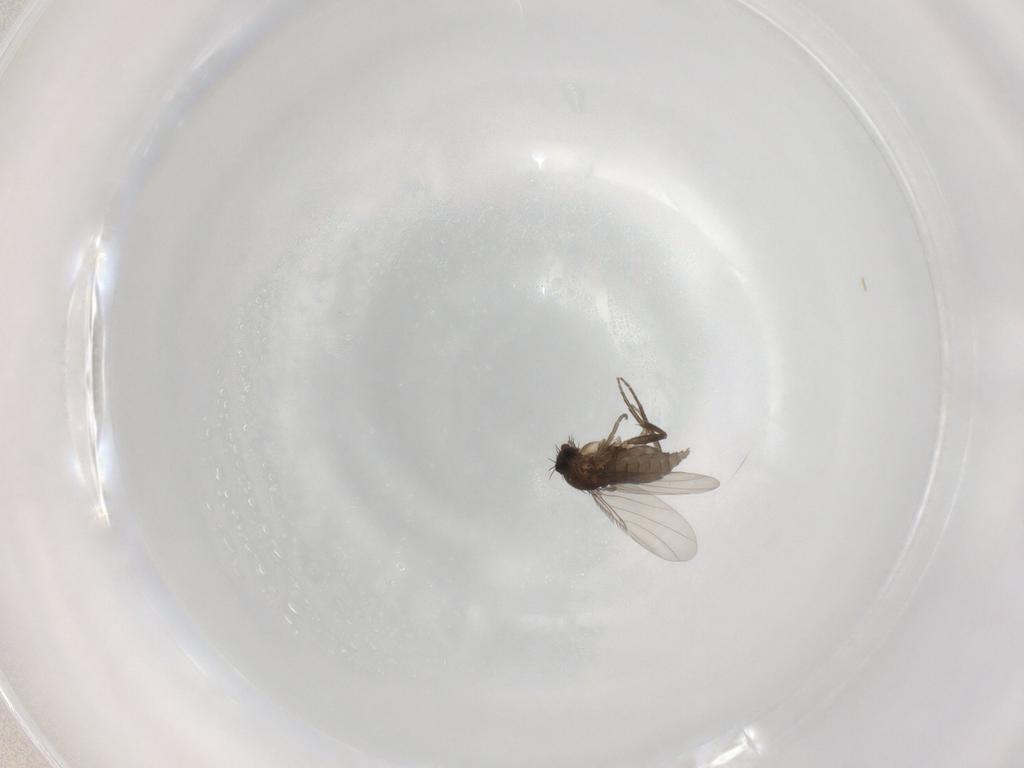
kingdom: Animalia
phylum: Arthropoda
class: Insecta
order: Diptera
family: Phoridae
